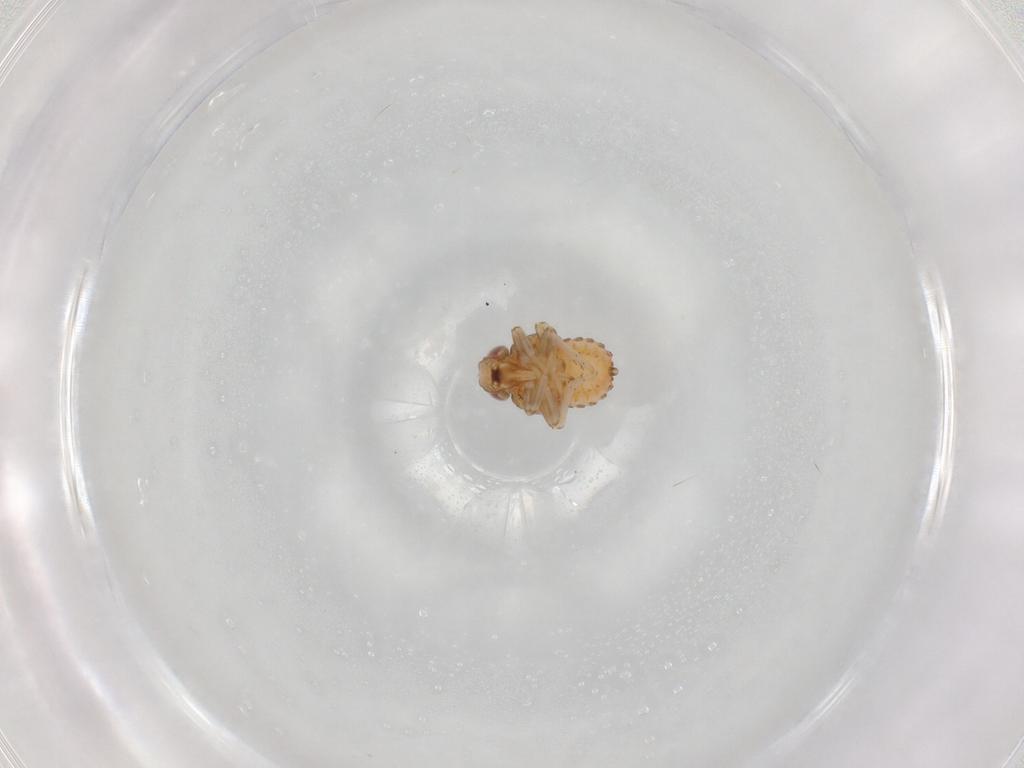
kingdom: Animalia
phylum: Arthropoda
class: Insecta
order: Hemiptera
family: Issidae
